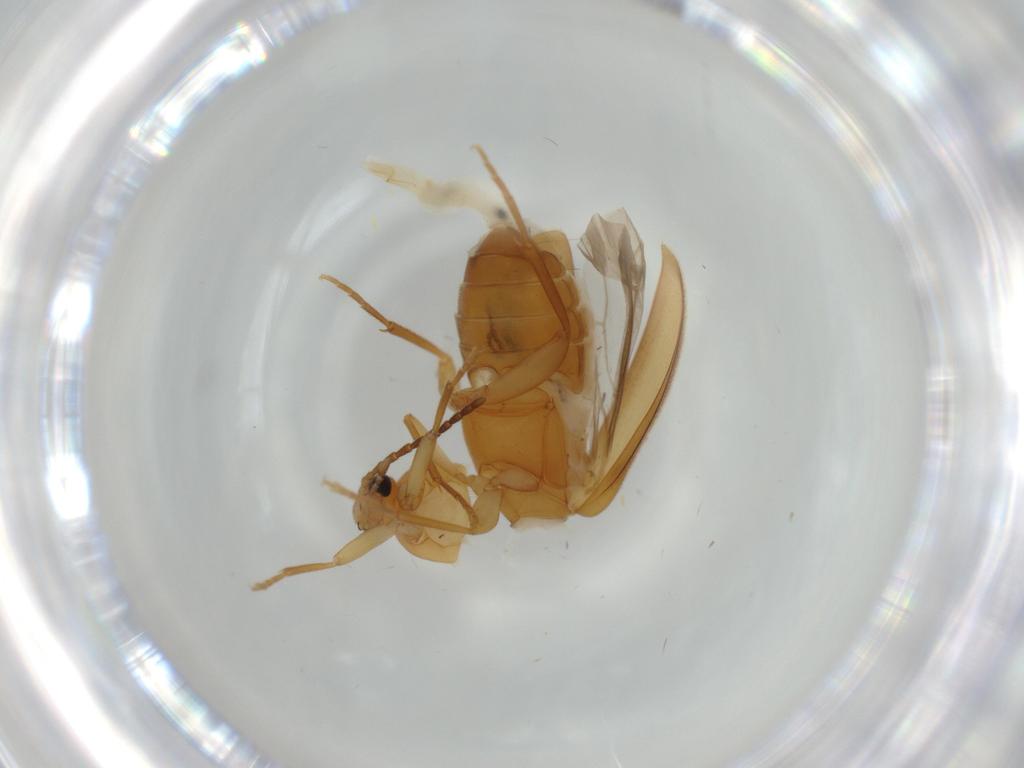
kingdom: Animalia
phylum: Arthropoda
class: Insecta
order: Coleoptera
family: Scraptiidae
